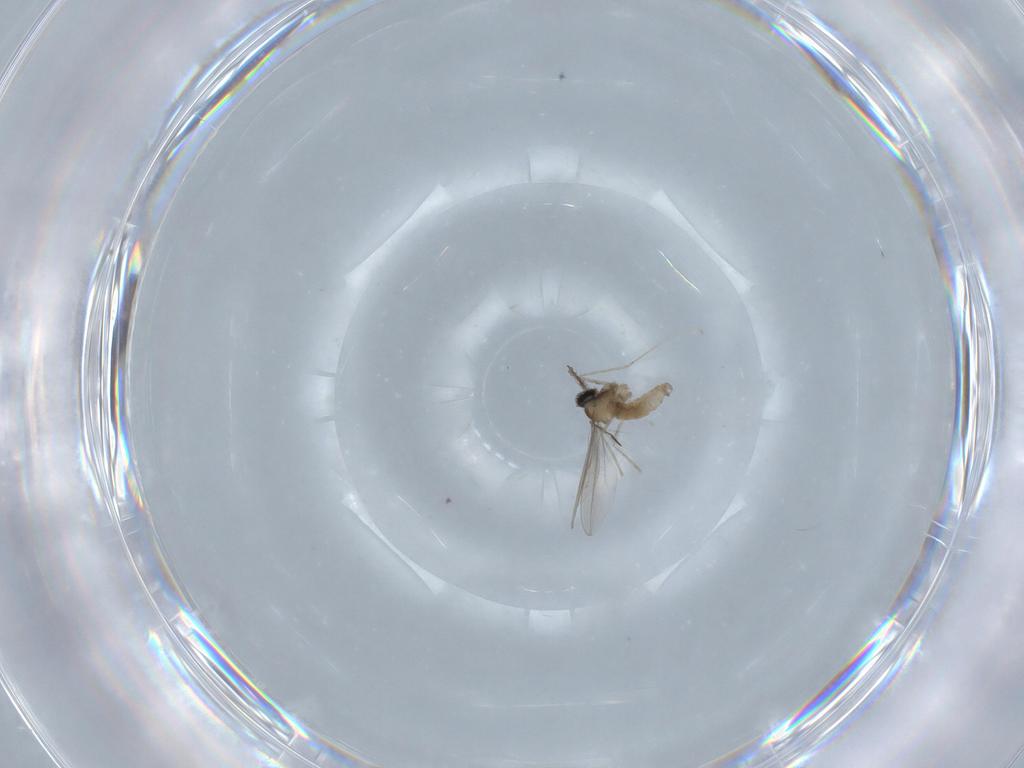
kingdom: Animalia
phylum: Arthropoda
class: Insecta
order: Diptera
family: Cecidomyiidae
